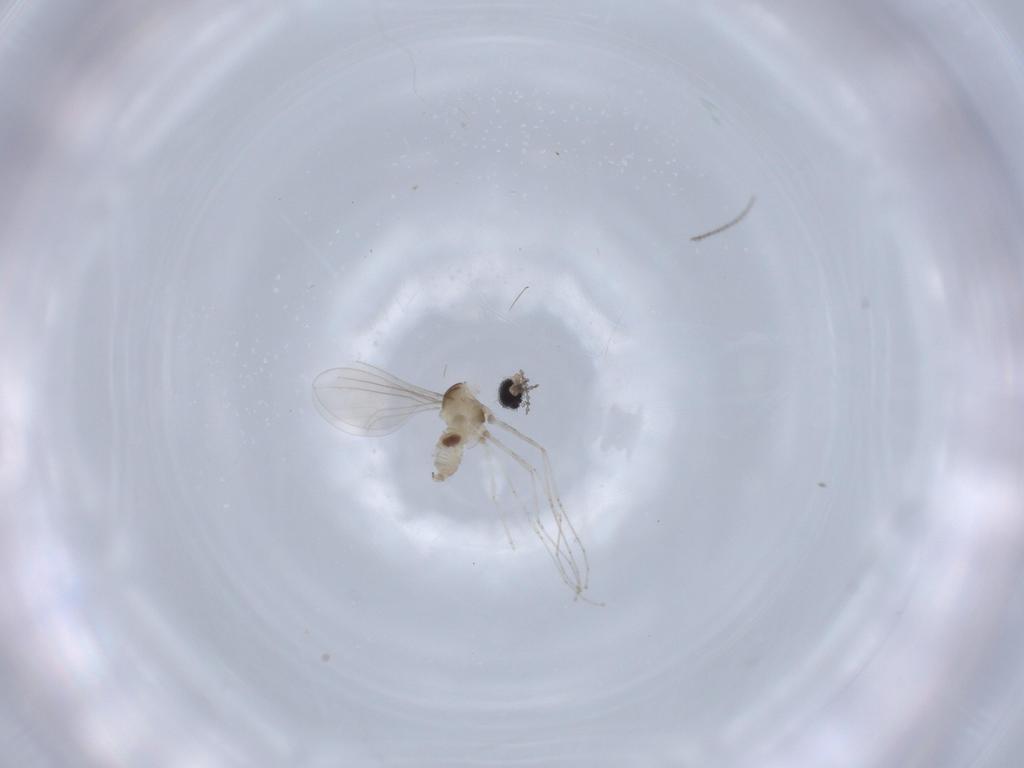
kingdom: Animalia
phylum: Arthropoda
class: Insecta
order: Diptera
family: Cecidomyiidae
